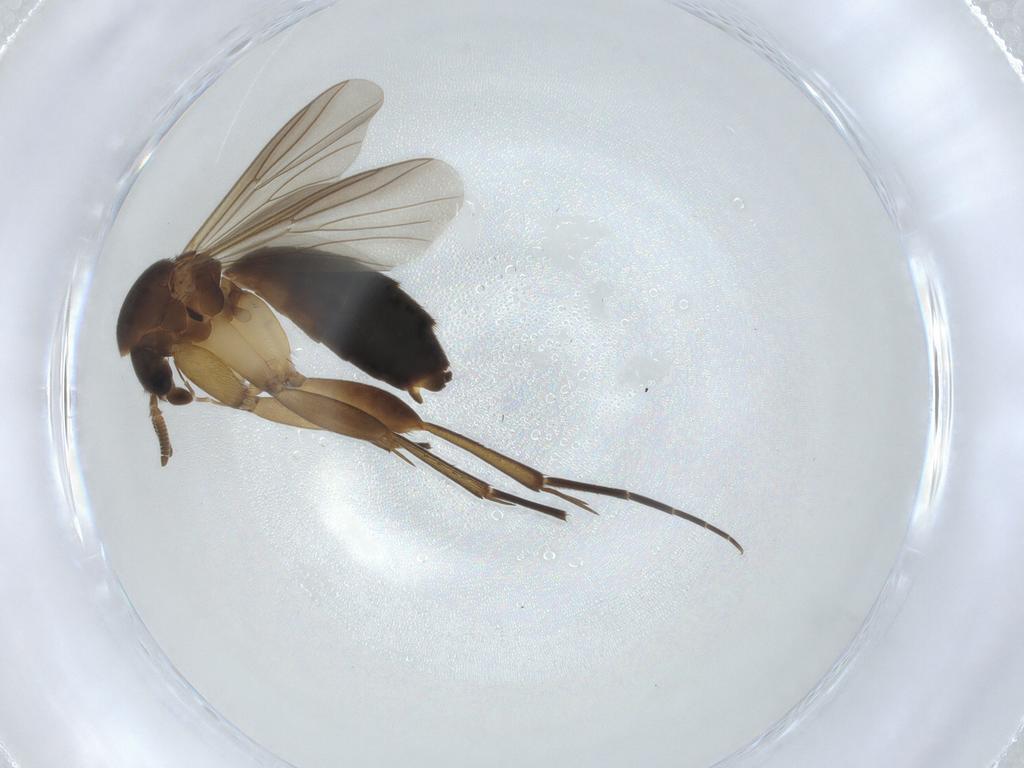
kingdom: Animalia
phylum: Arthropoda
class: Insecta
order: Diptera
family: Mycetophilidae
